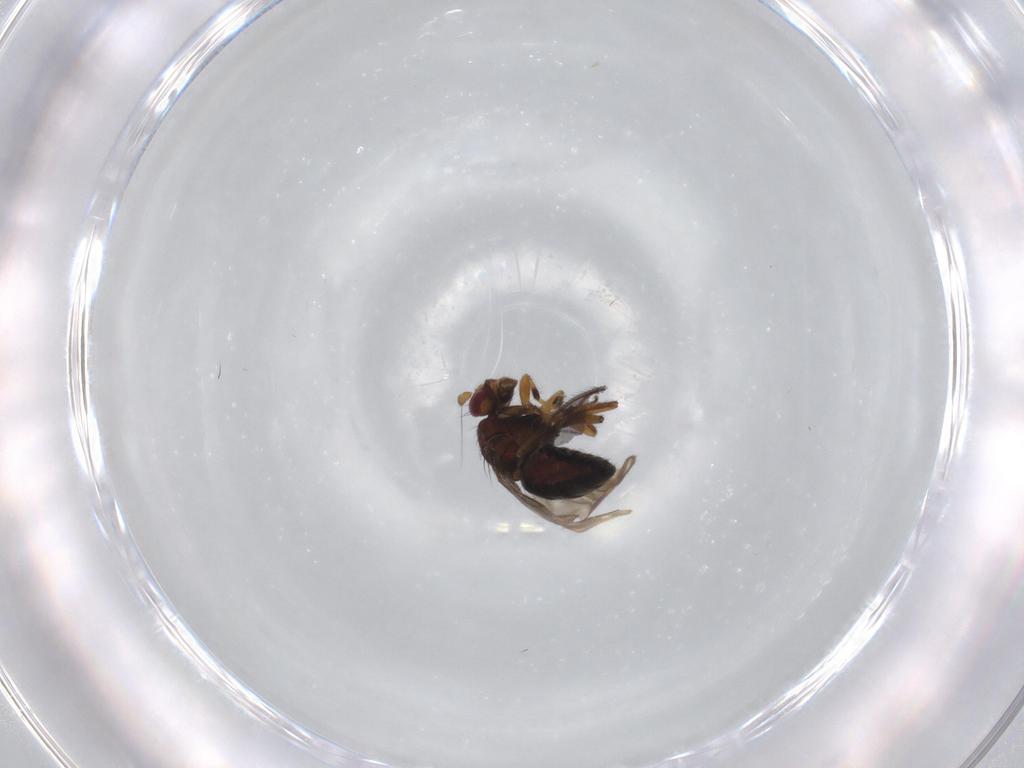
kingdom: Animalia
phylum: Arthropoda
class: Insecta
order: Diptera
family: Sphaeroceridae
